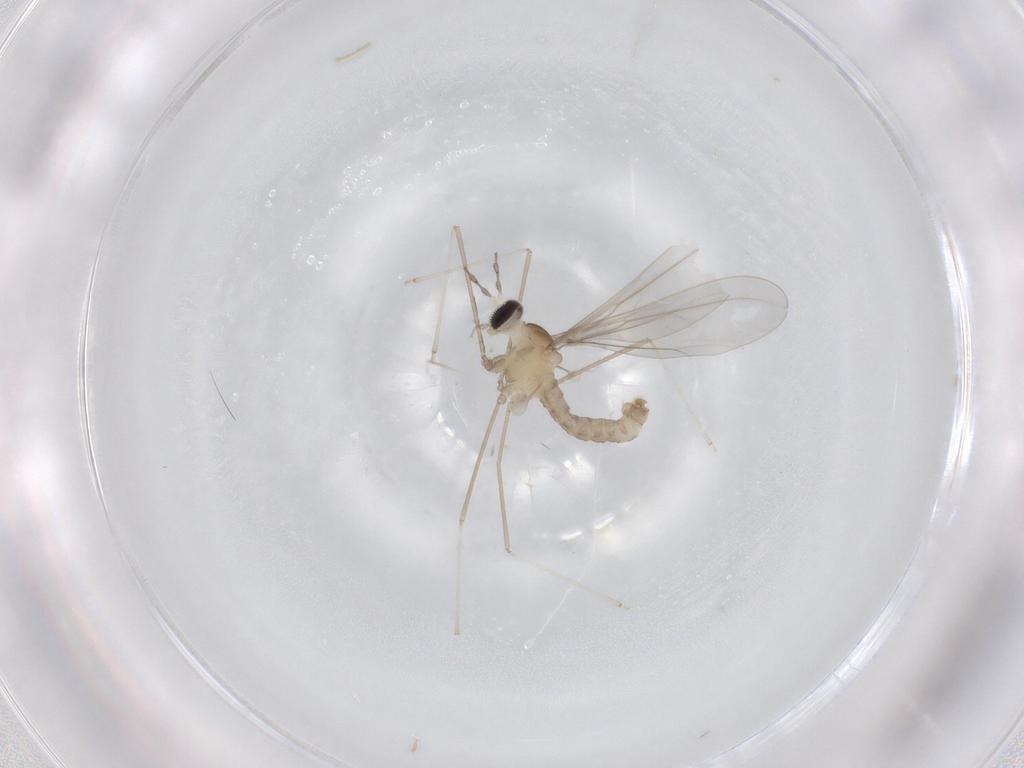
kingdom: Animalia
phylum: Arthropoda
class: Insecta
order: Diptera
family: Cecidomyiidae
